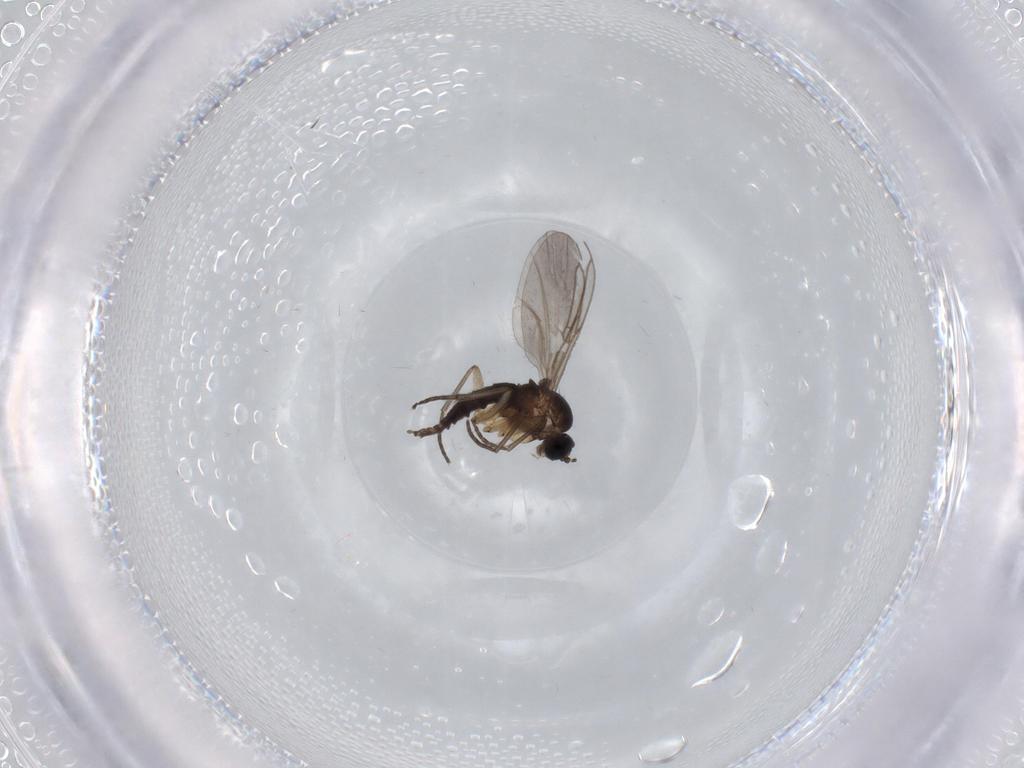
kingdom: Animalia
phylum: Arthropoda
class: Insecta
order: Diptera
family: Sciaridae
